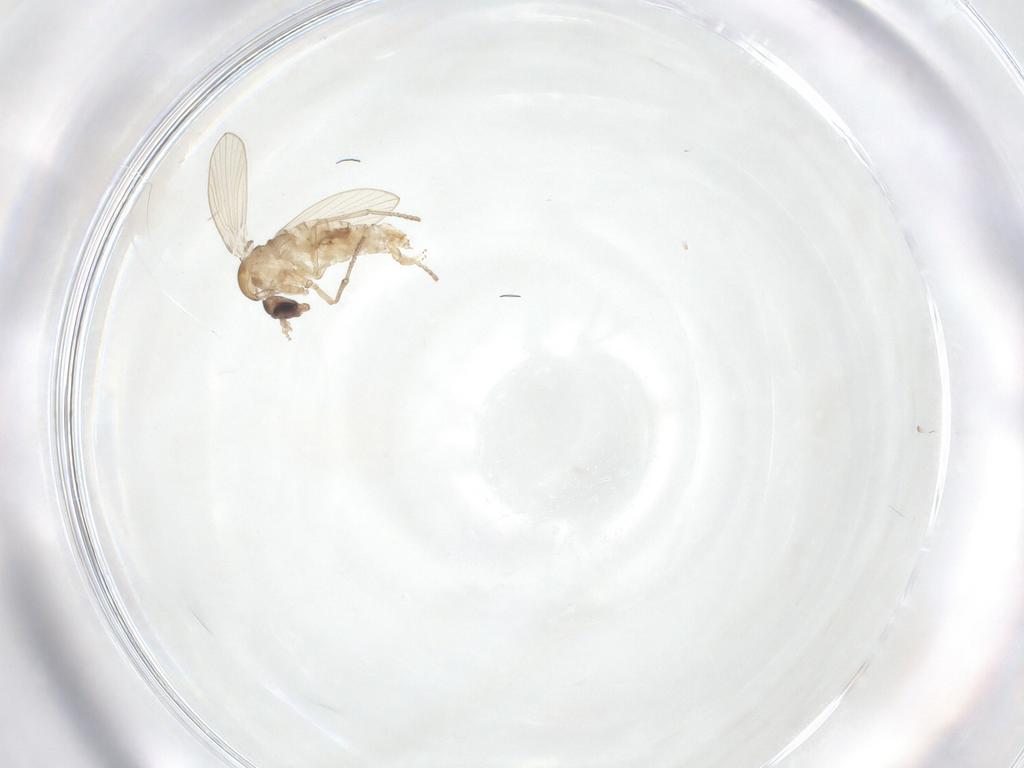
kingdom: Animalia
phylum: Arthropoda
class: Insecta
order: Diptera
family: Psychodidae
